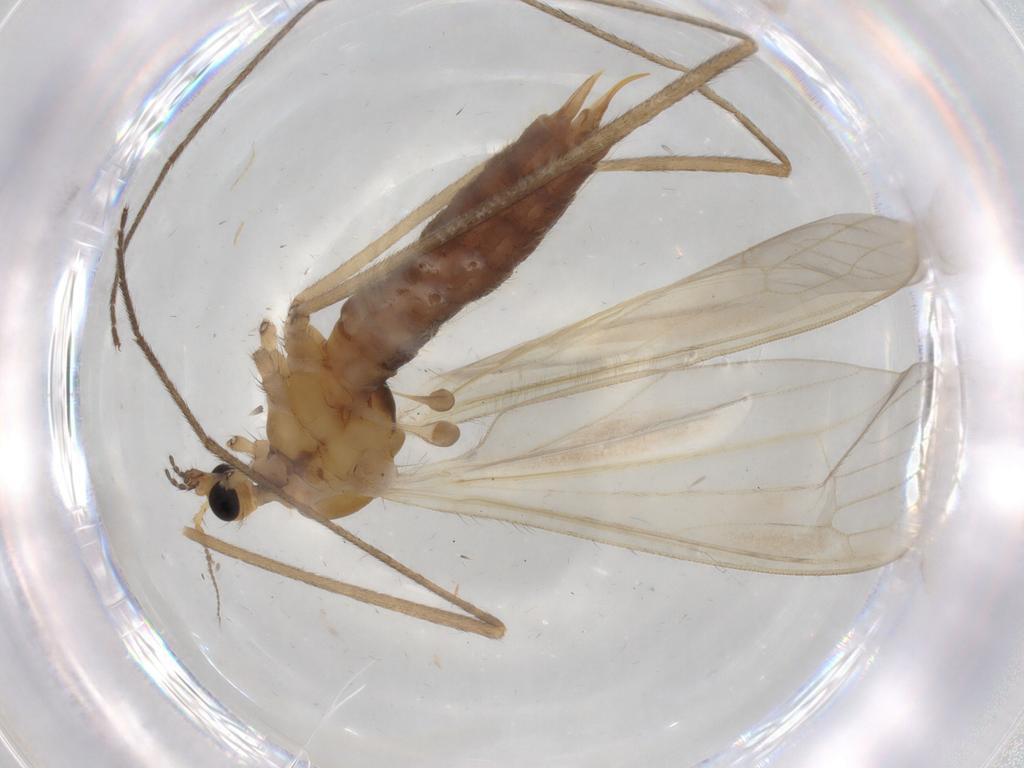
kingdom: Animalia
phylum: Arthropoda
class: Insecta
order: Diptera
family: Limoniidae
